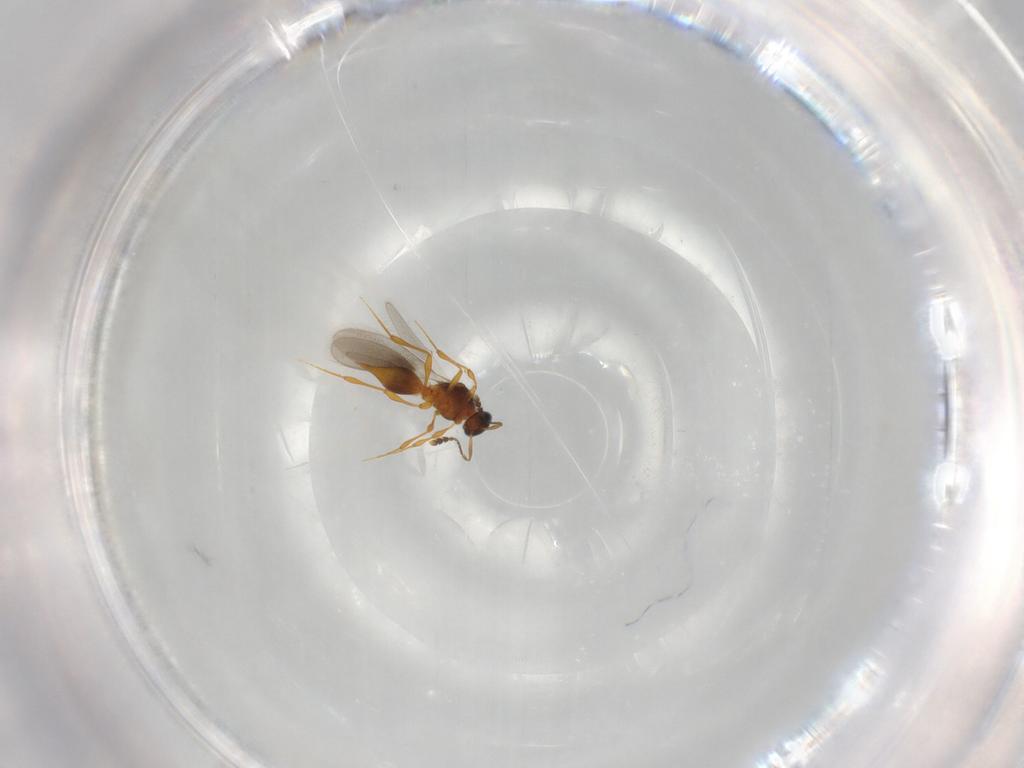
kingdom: Animalia
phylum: Arthropoda
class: Insecta
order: Hymenoptera
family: Platygastridae
